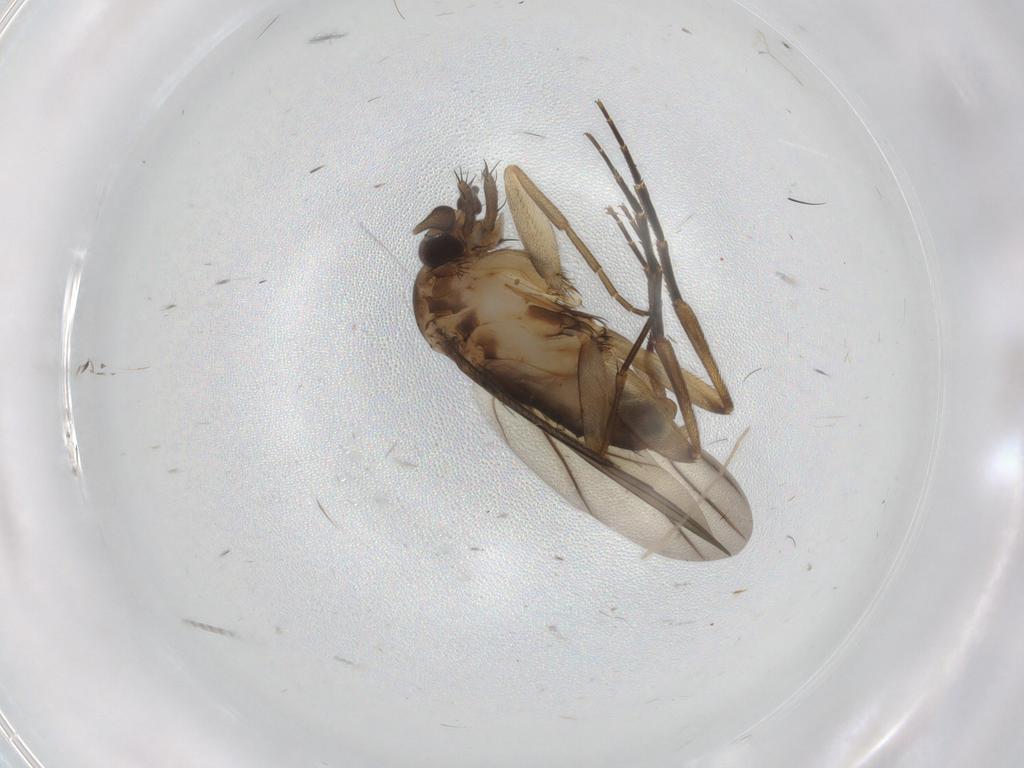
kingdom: Animalia
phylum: Arthropoda
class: Insecta
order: Diptera
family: Phoridae
